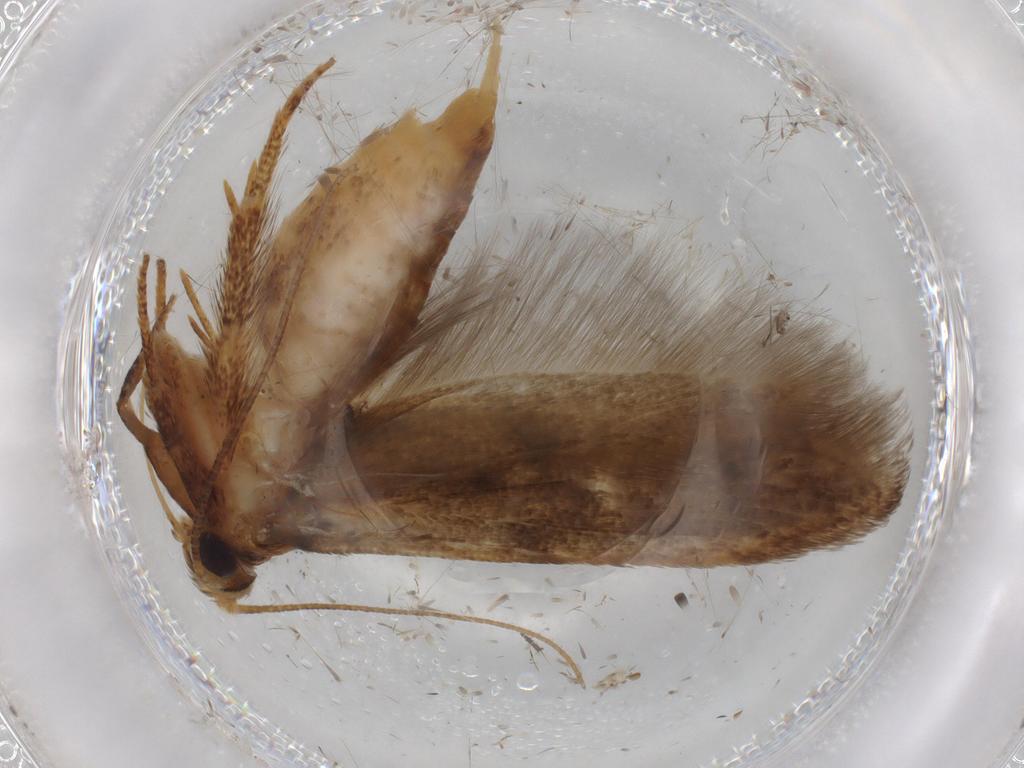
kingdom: Animalia
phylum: Arthropoda
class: Insecta
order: Lepidoptera
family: Blastobasidae
